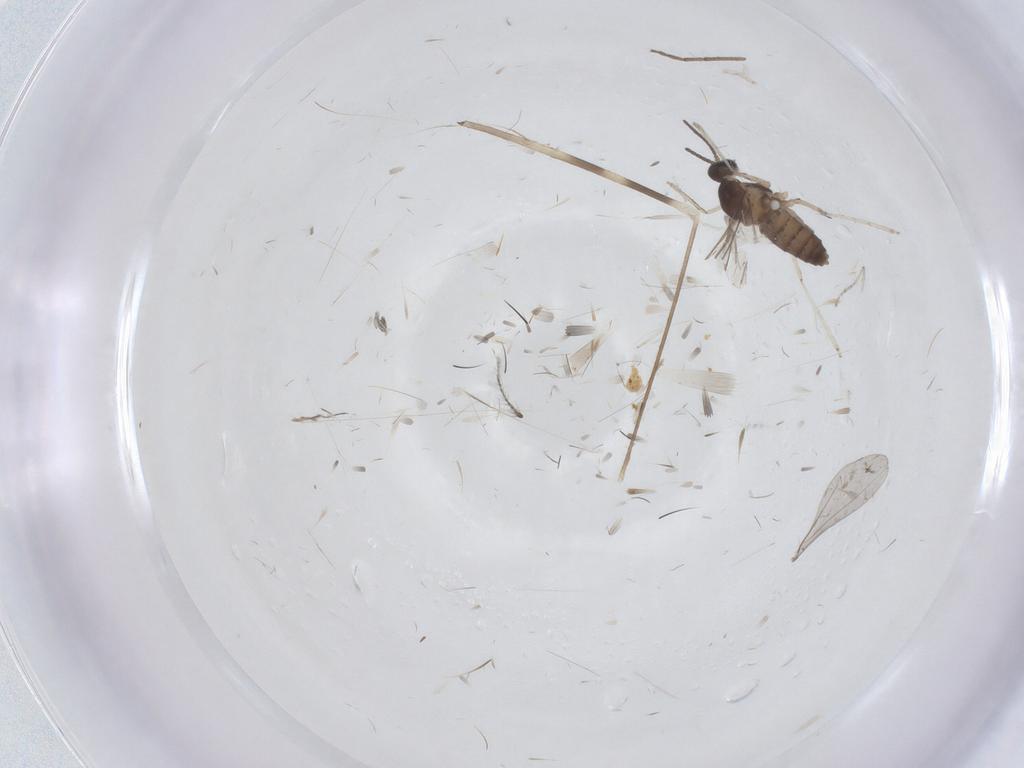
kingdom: Animalia
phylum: Arthropoda
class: Insecta
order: Diptera
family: Limoniidae
